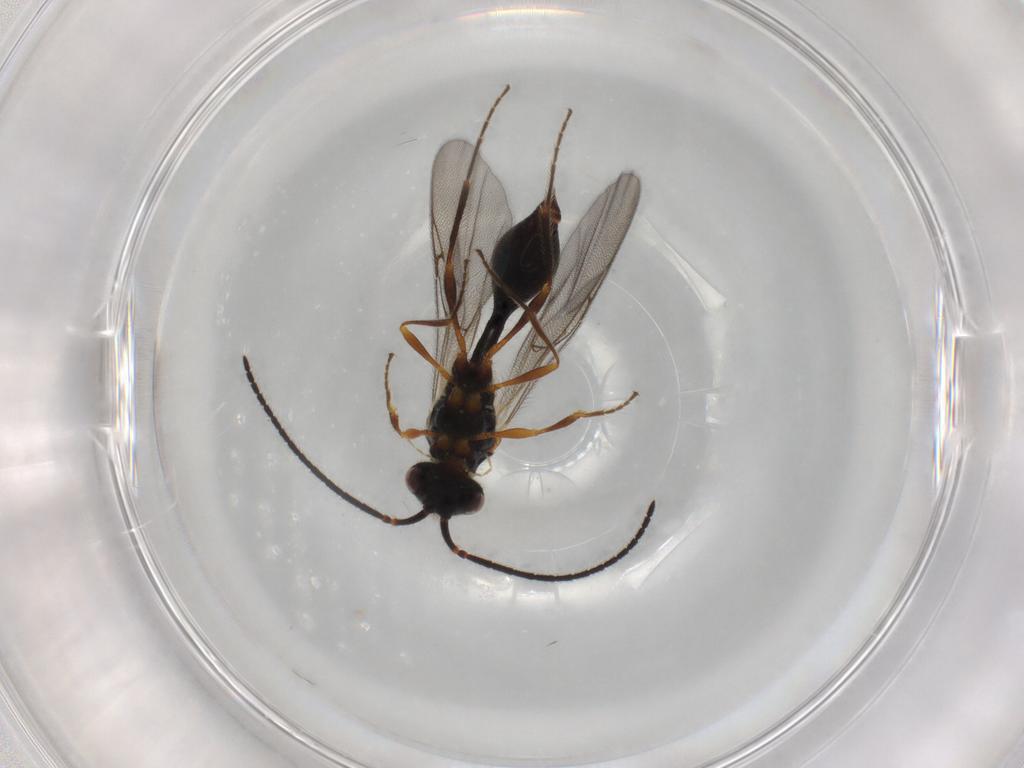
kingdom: Animalia
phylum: Arthropoda
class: Insecta
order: Hymenoptera
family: Diapriidae
